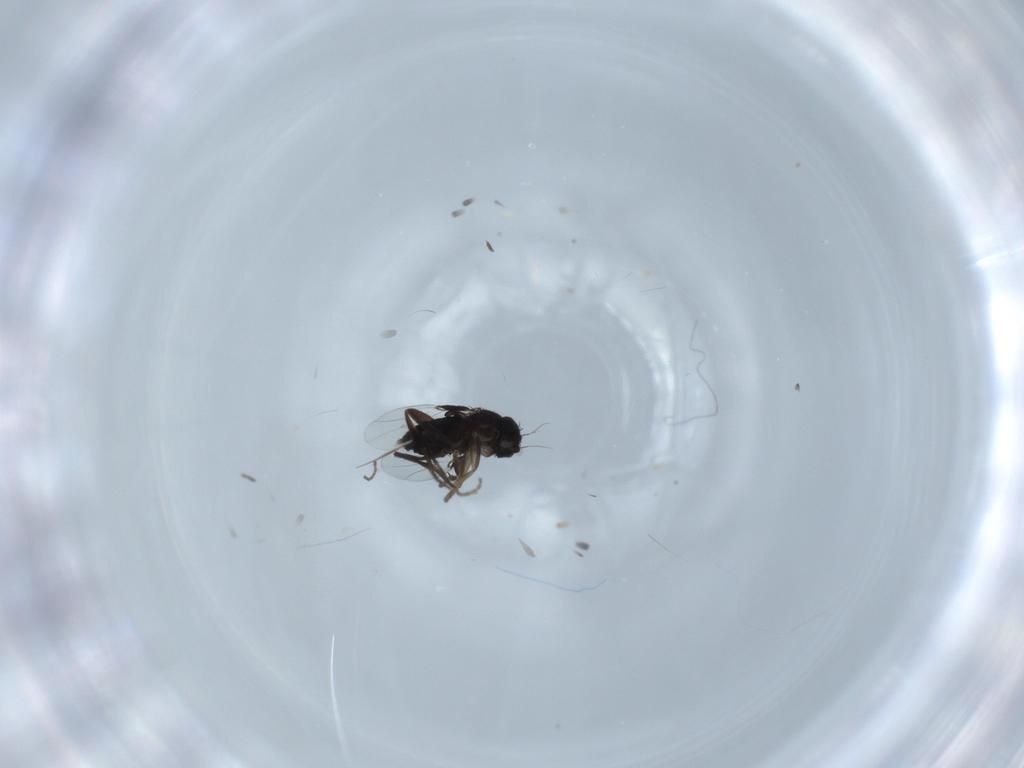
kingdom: Animalia
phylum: Arthropoda
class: Insecta
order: Diptera
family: Phoridae
